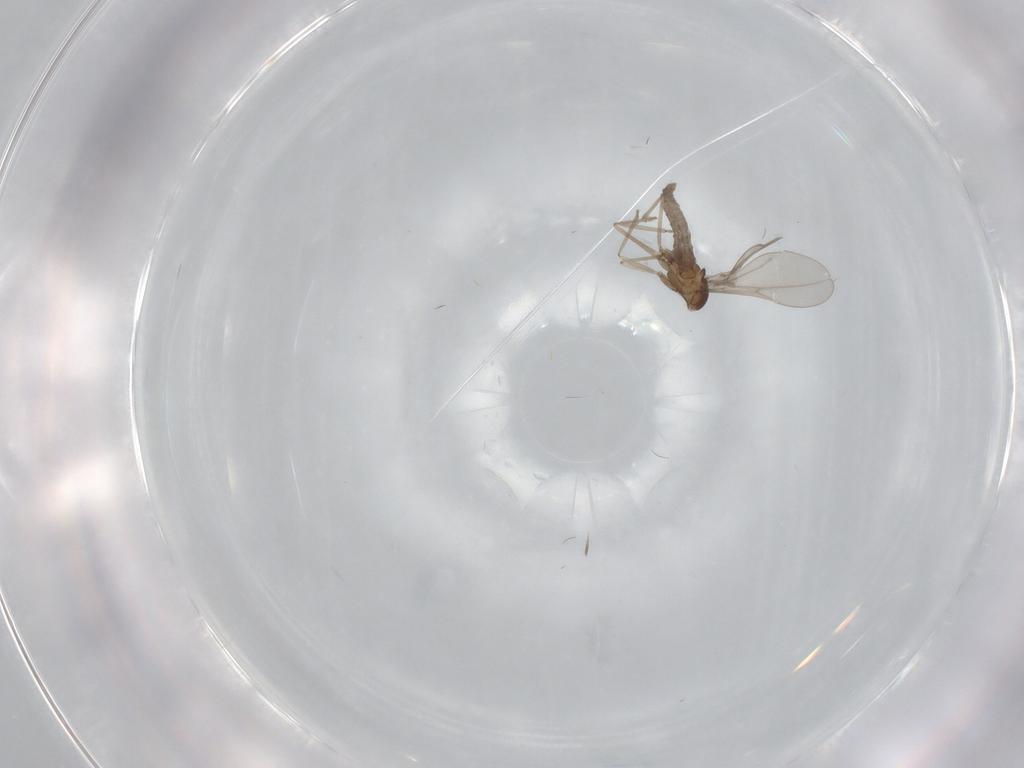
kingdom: Animalia
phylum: Arthropoda
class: Insecta
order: Diptera
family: Cecidomyiidae
